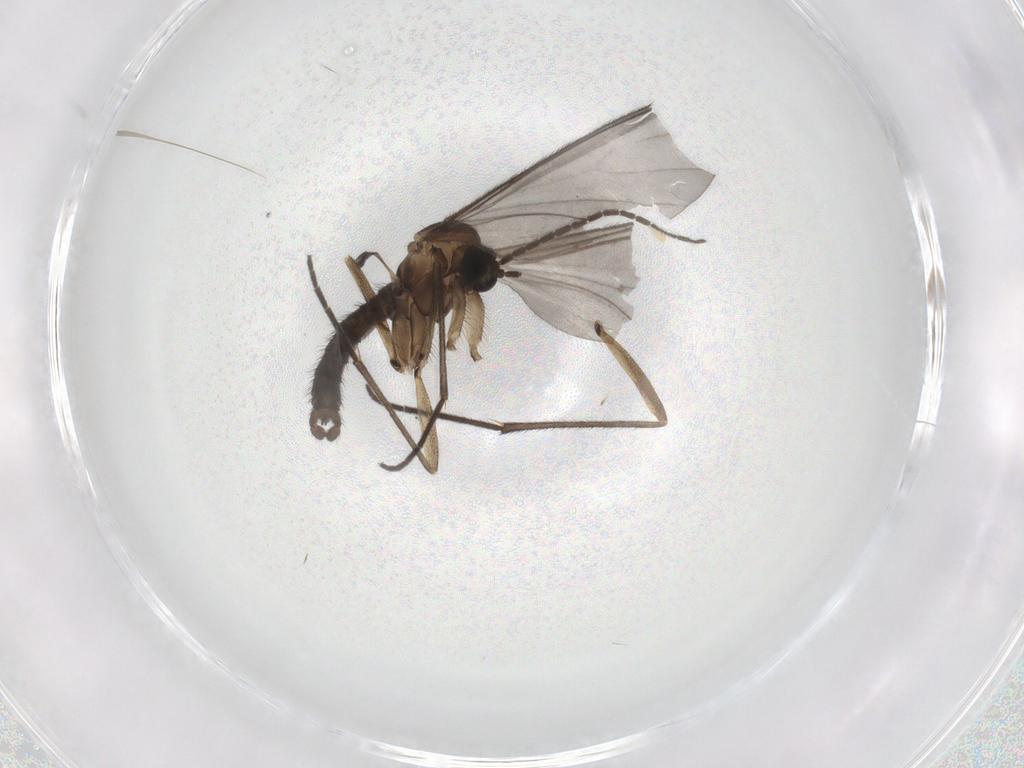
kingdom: Animalia
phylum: Arthropoda
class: Insecta
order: Diptera
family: Sciaridae
